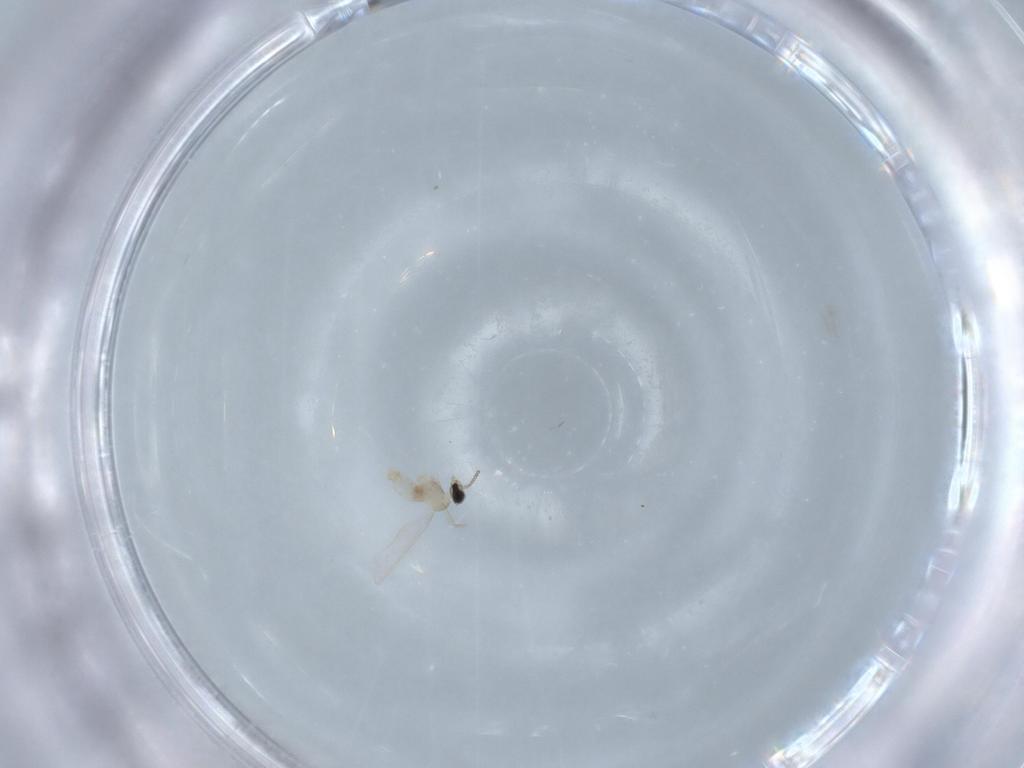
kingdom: Animalia
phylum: Arthropoda
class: Insecta
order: Diptera
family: Cecidomyiidae
